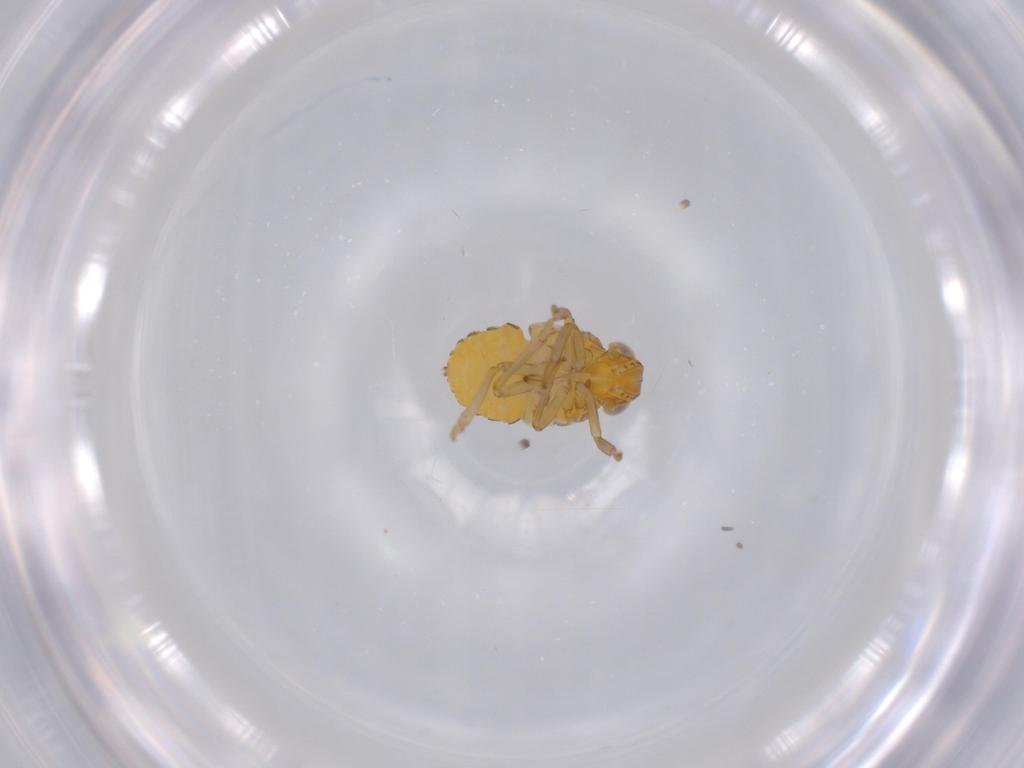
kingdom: Animalia
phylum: Arthropoda
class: Insecta
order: Hemiptera
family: Issidae
